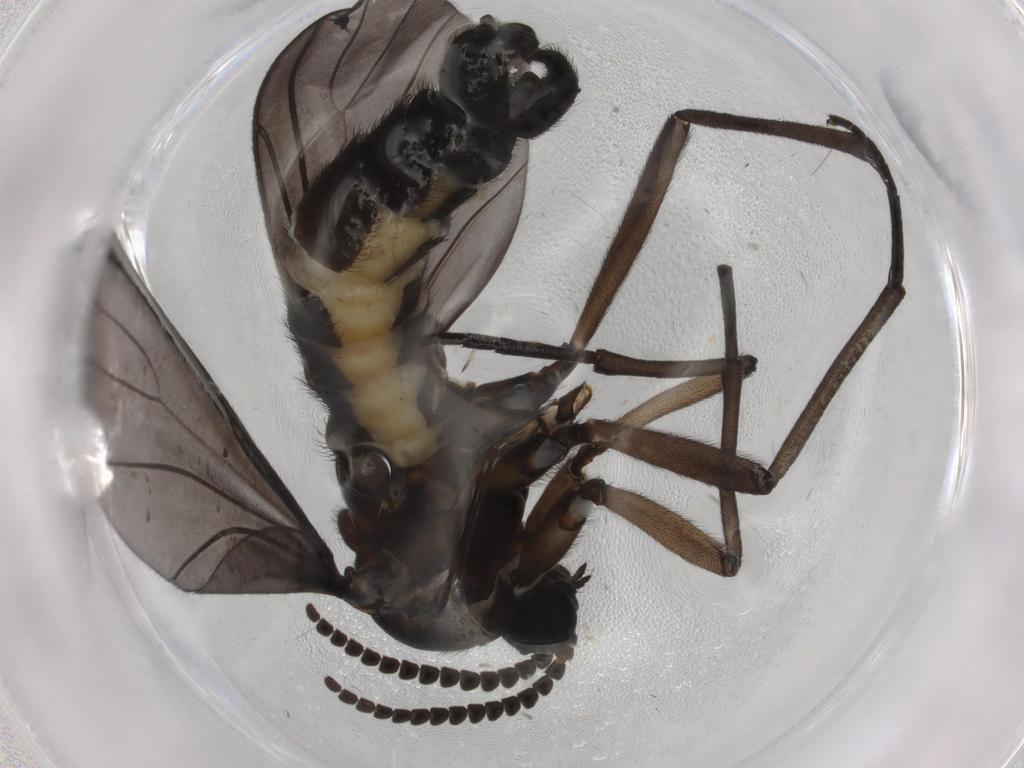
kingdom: Animalia
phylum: Arthropoda
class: Insecta
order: Diptera
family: Sciaridae
